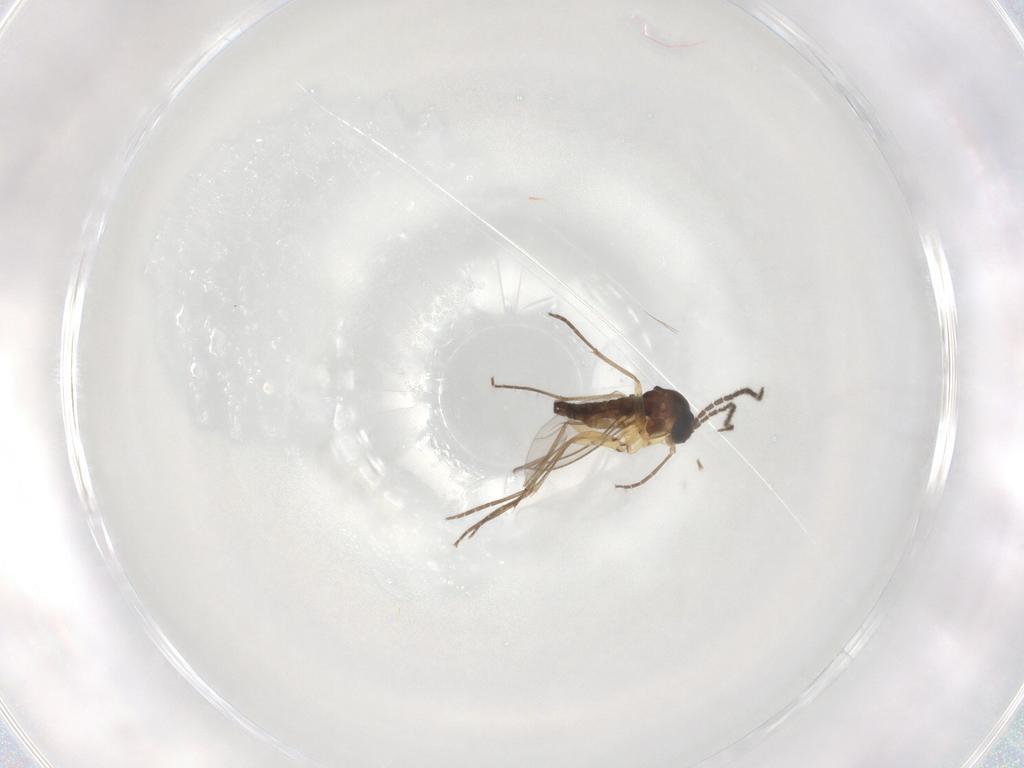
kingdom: Animalia
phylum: Arthropoda
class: Insecta
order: Diptera
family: Sciaridae
